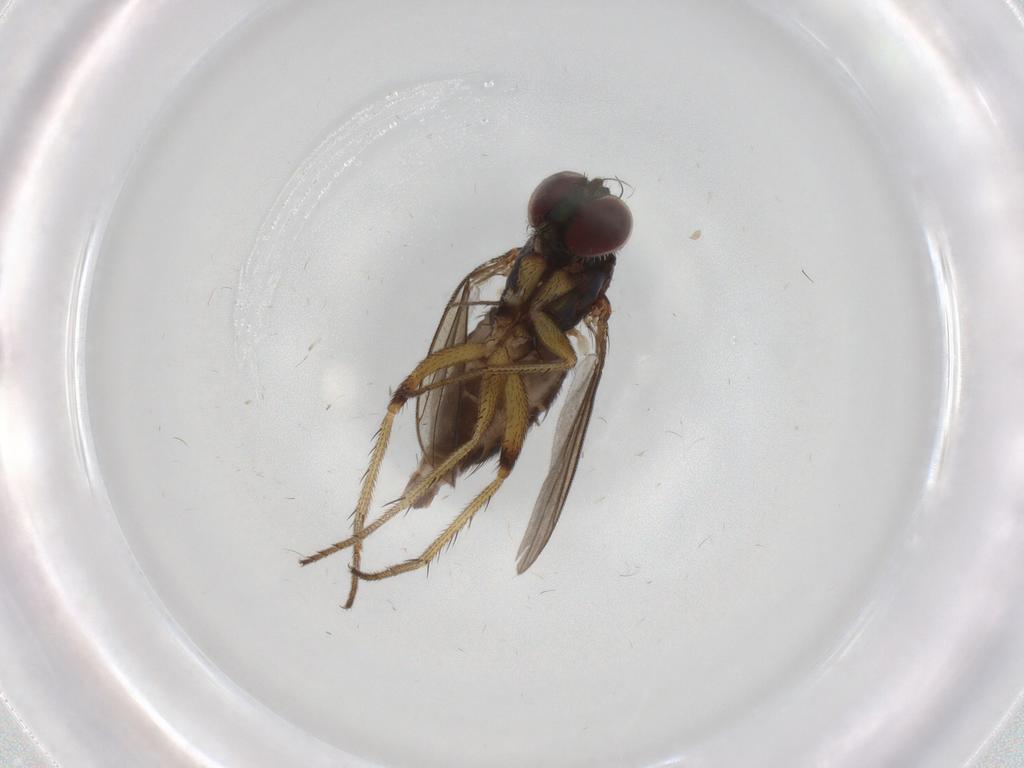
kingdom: Animalia
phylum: Arthropoda
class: Insecta
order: Diptera
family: Dolichopodidae
